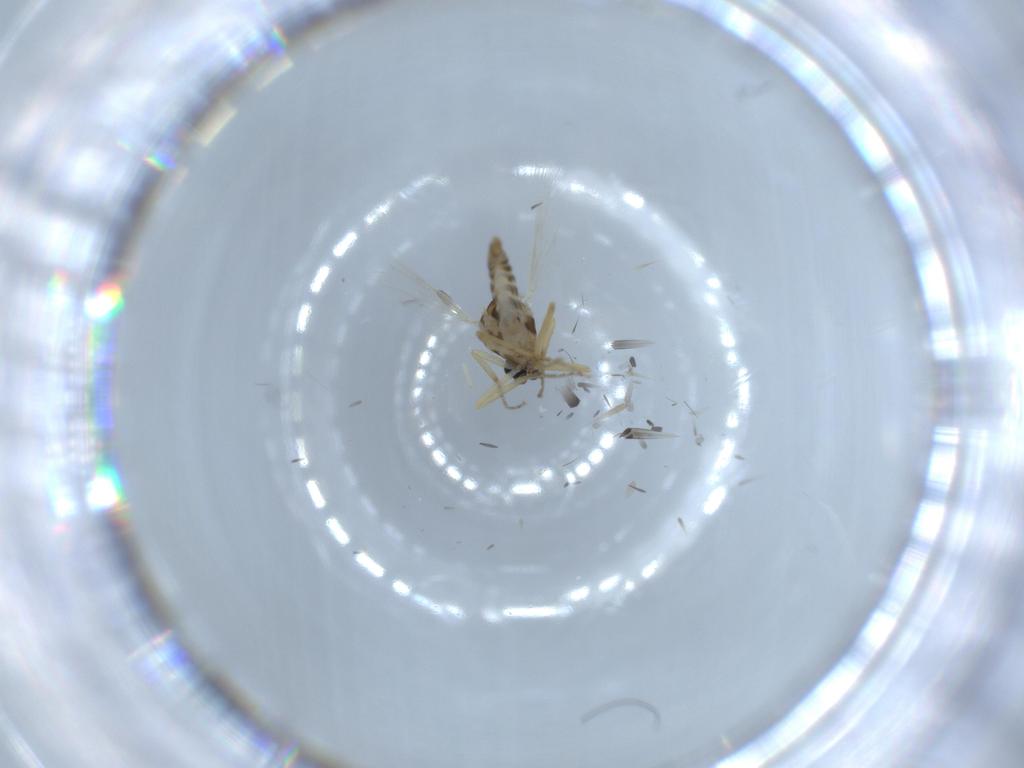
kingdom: Animalia
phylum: Arthropoda
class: Insecta
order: Diptera
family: Ceratopogonidae
